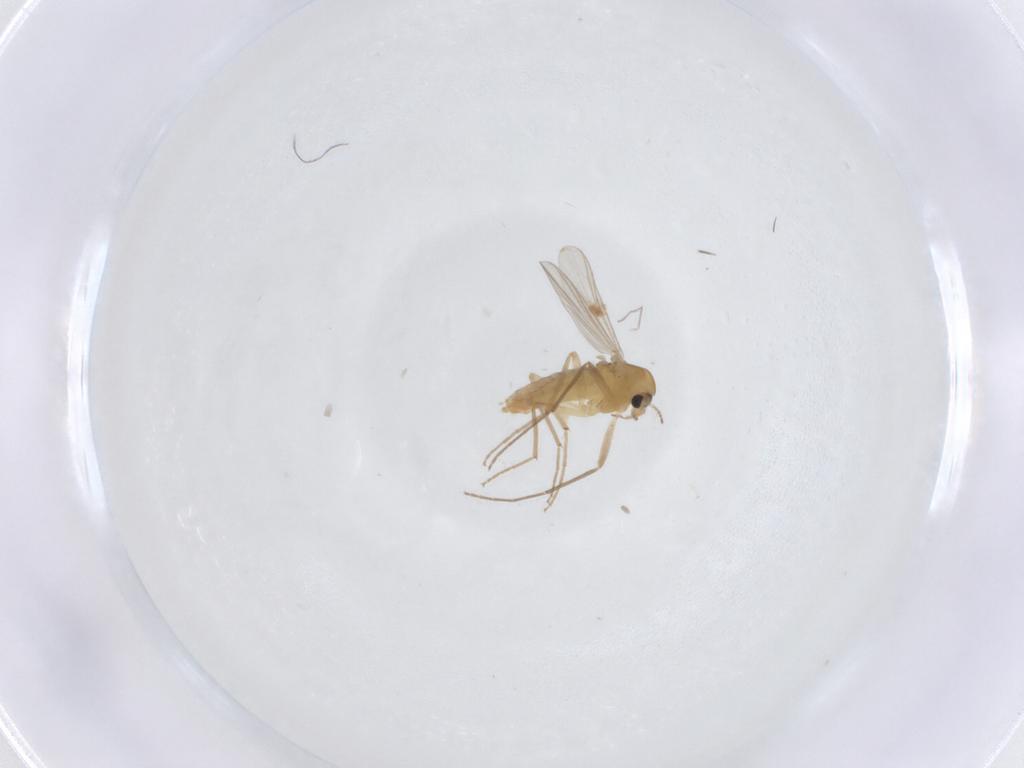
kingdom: Animalia
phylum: Arthropoda
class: Insecta
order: Diptera
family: Chironomidae
